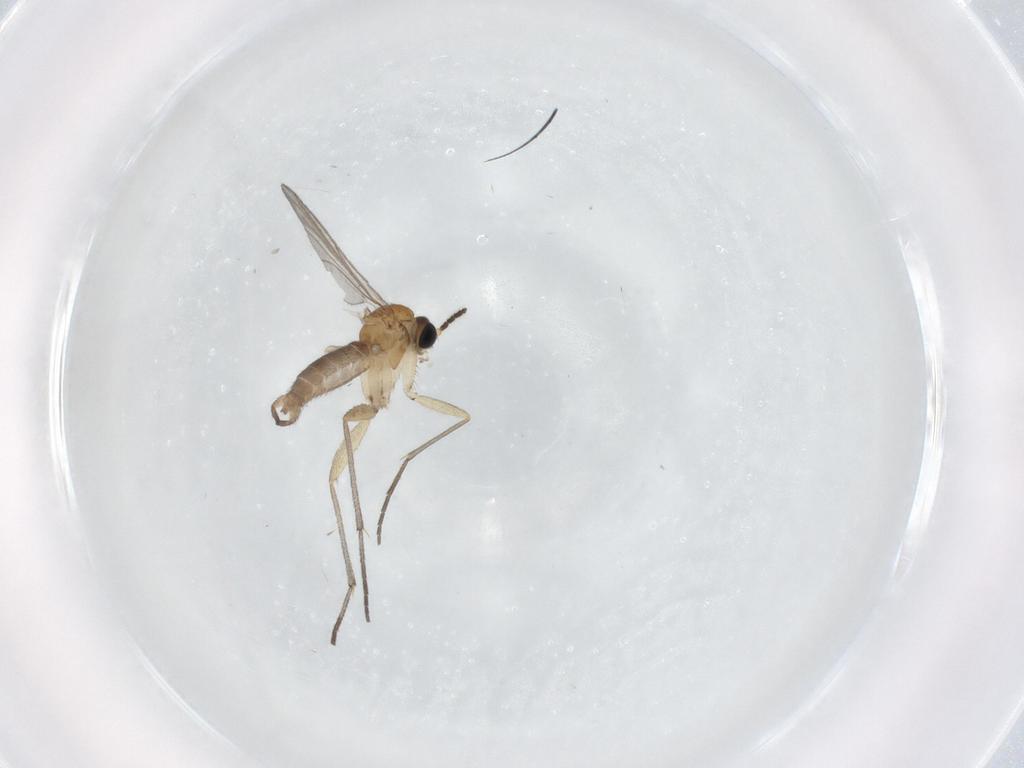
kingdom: Animalia
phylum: Arthropoda
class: Insecta
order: Diptera
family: Sciaridae
